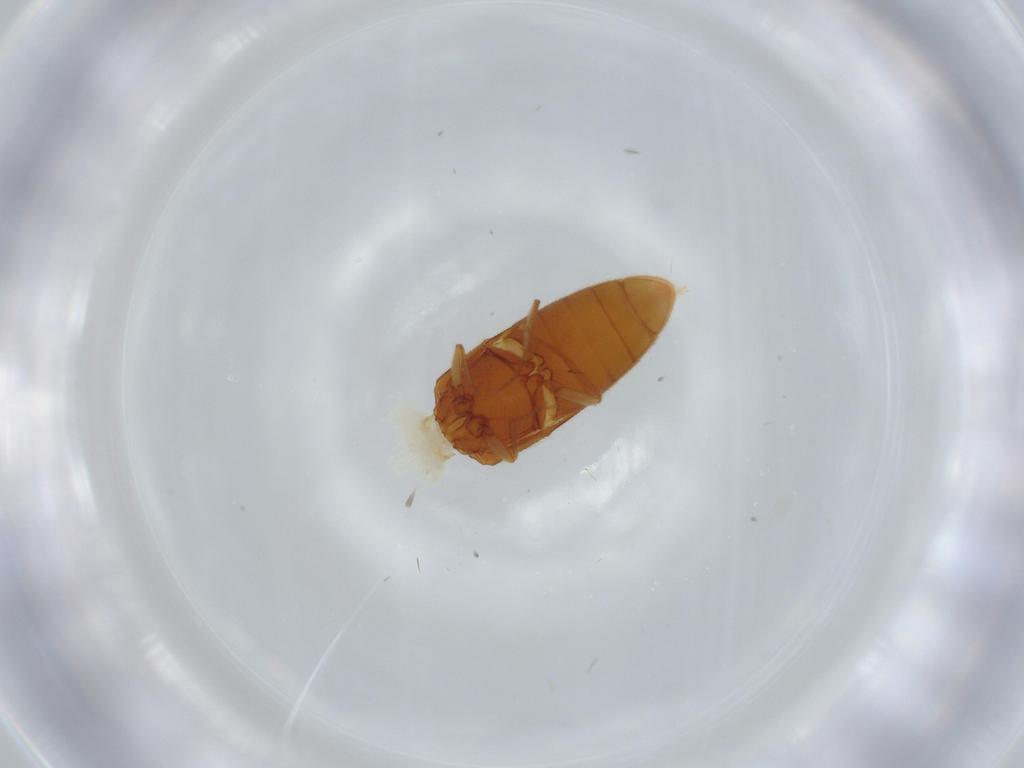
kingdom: Animalia
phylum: Arthropoda
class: Insecta
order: Coleoptera
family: Elateridae
